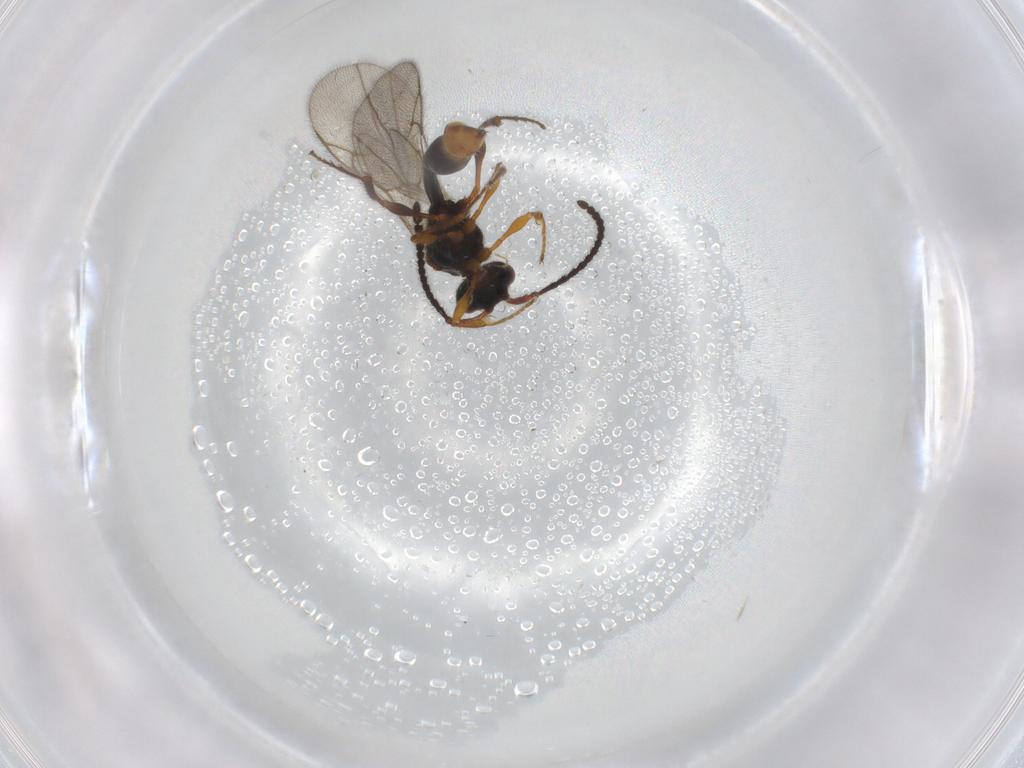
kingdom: Animalia
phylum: Arthropoda
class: Insecta
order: Hymenoptera
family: Diapriidae
